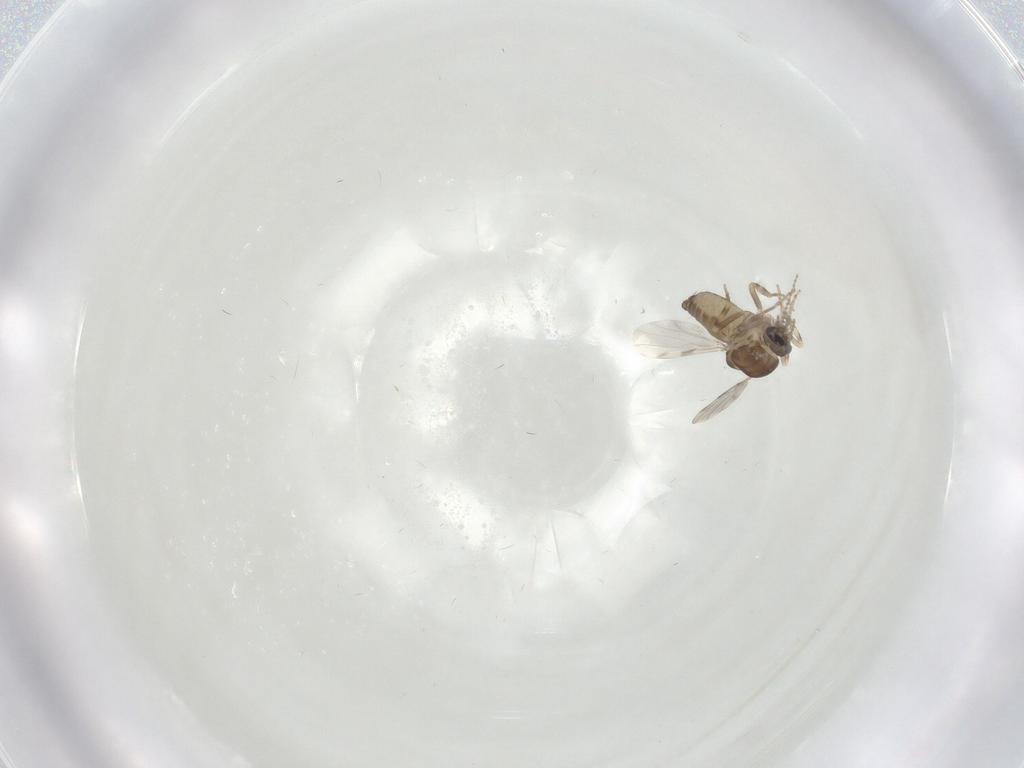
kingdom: Animalia
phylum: Arthropoda
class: Insecta
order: Diptera
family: Ceratopogonidae
